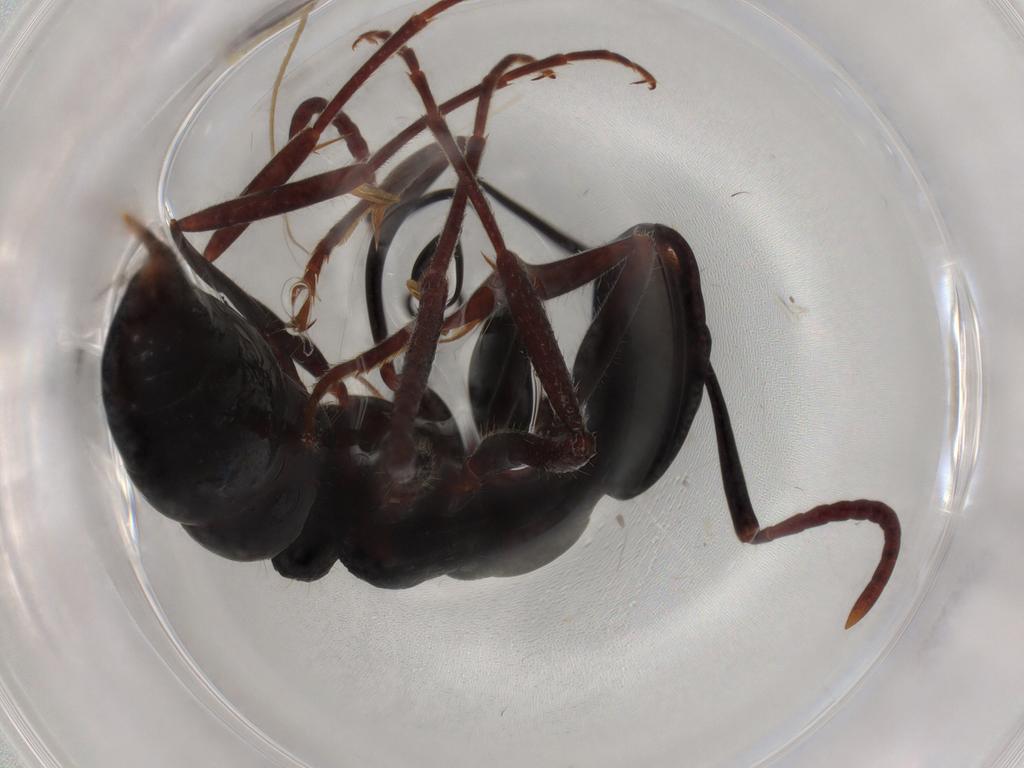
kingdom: Animalia
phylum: Arthropoda
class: Insecta
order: Hymenoptera
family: Formicidae
